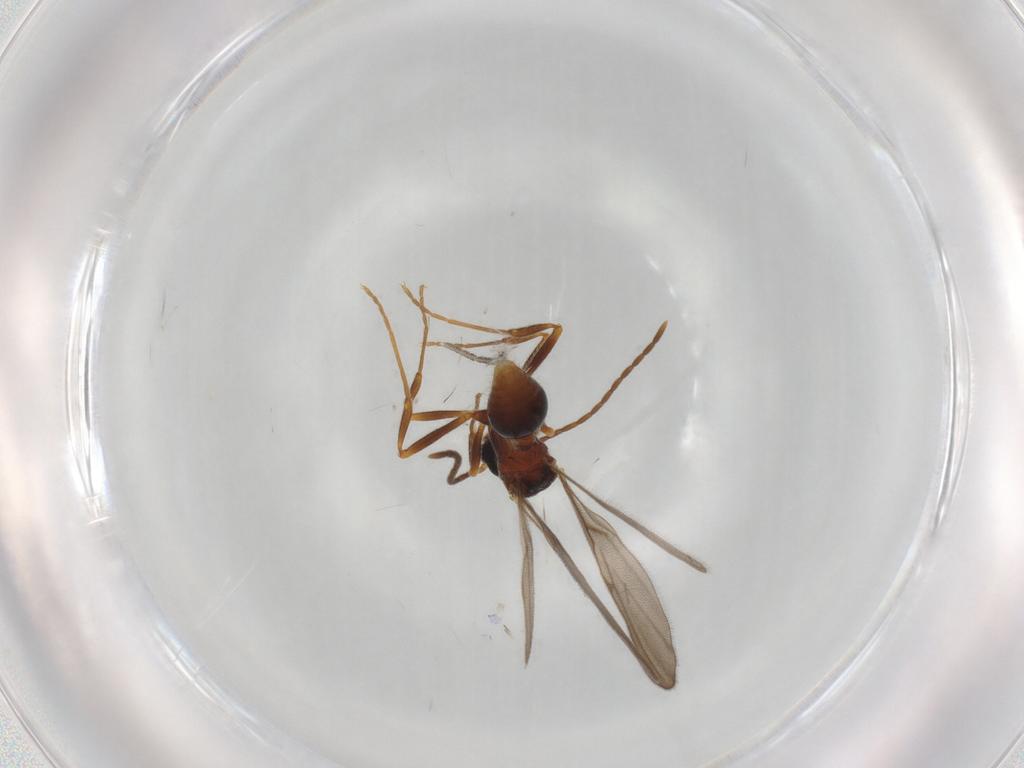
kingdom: Animalia
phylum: Arthropoda
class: Insecta
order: Hymenoptera
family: Formicidae
